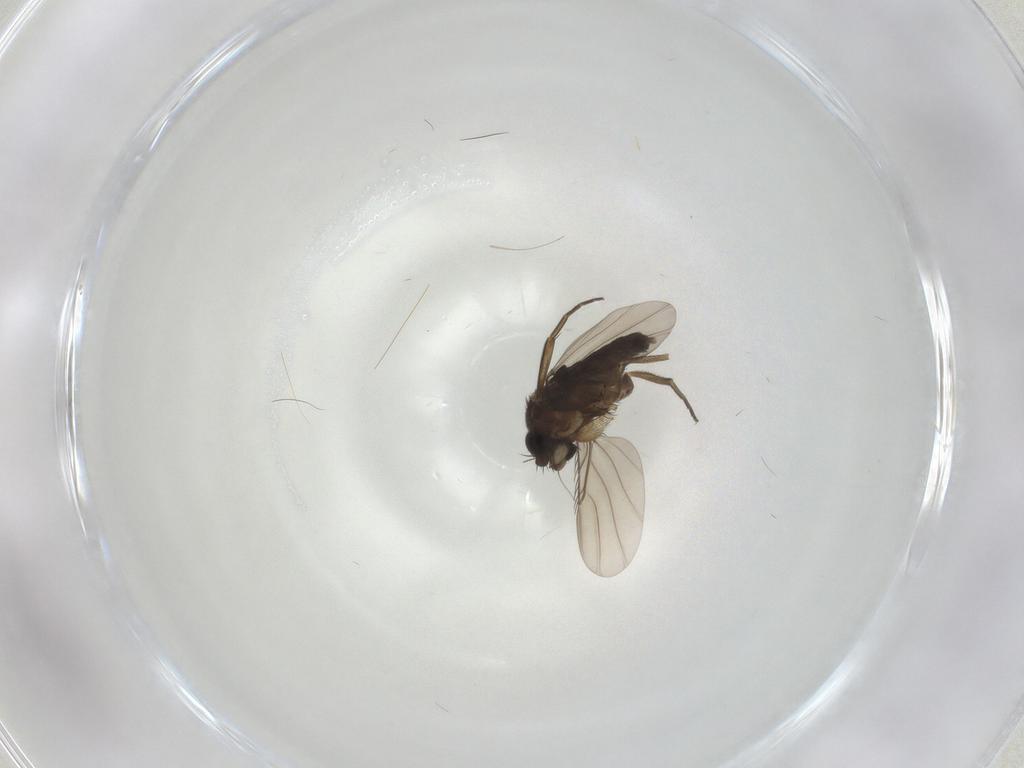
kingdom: Animalia
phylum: Arthropoda
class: Insecta
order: Diptera
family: Phoridae
